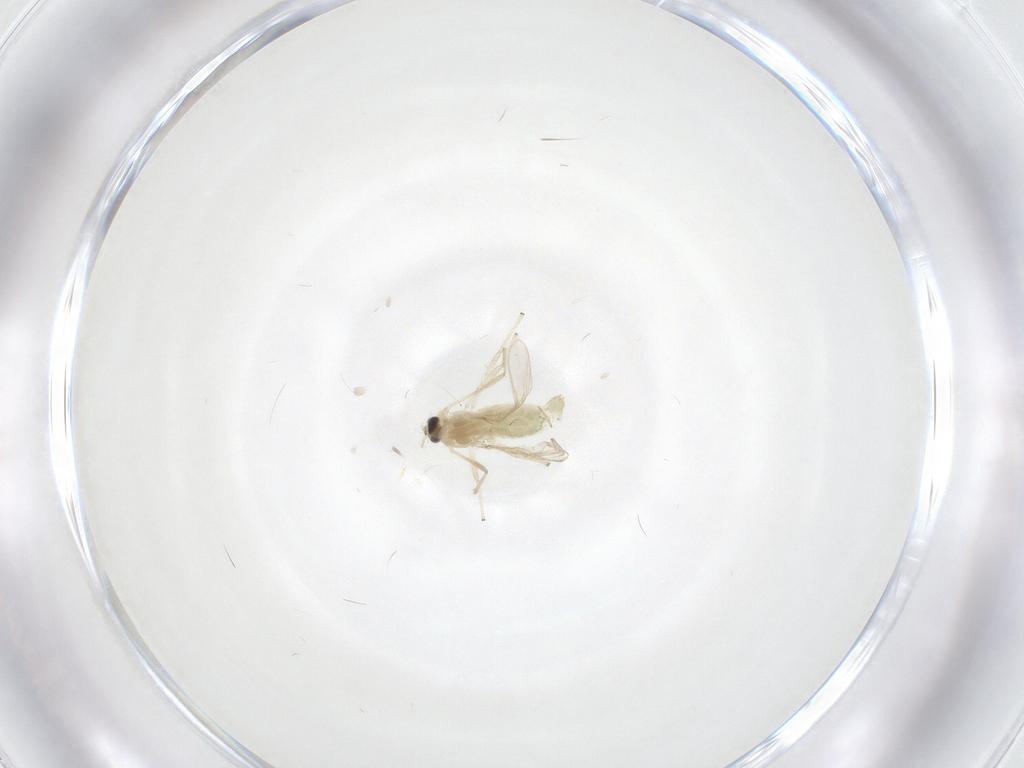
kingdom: Animalia
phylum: Arthropoda
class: Insecta
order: Diptera
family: Chironomidae
